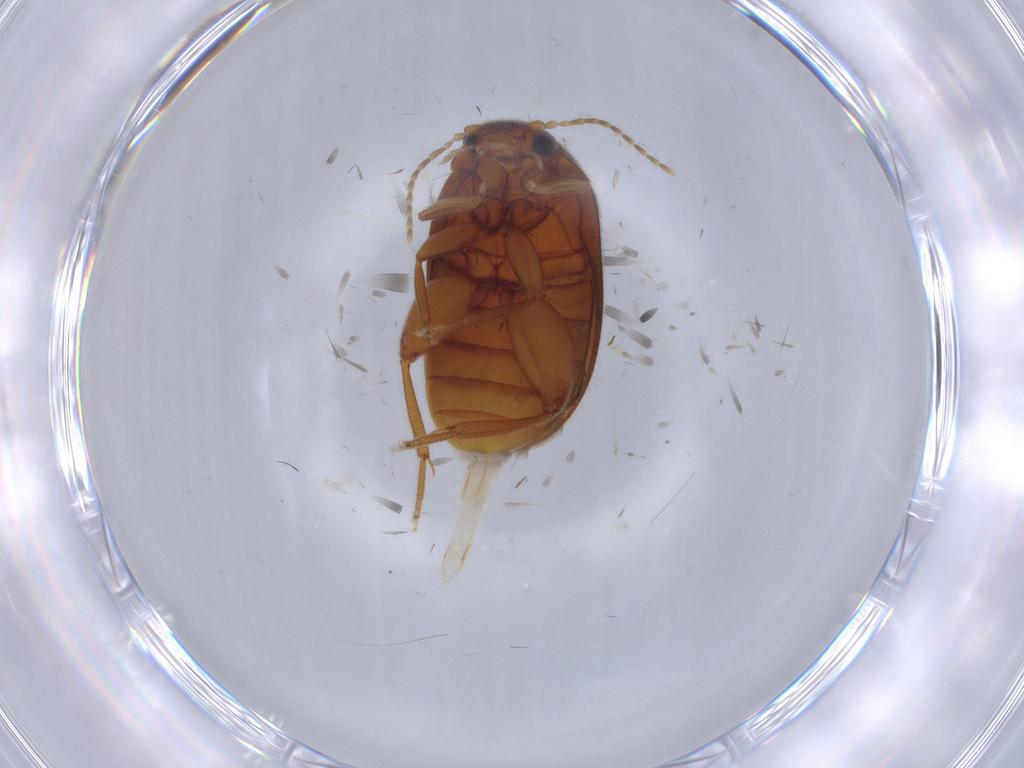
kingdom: Animalia
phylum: Arthropoda
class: Insecta
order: Coleoptera
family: Scirtidae
